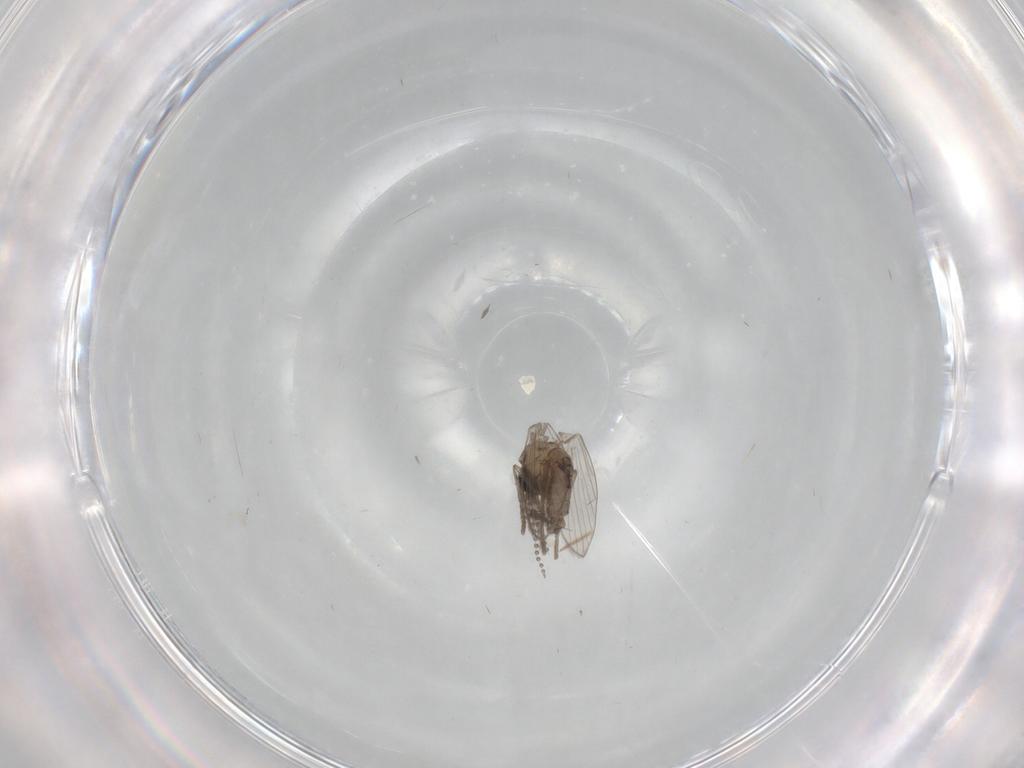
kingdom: Animalia
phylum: Arthropoda
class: Insecta
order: Diptera
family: Psychodidae
